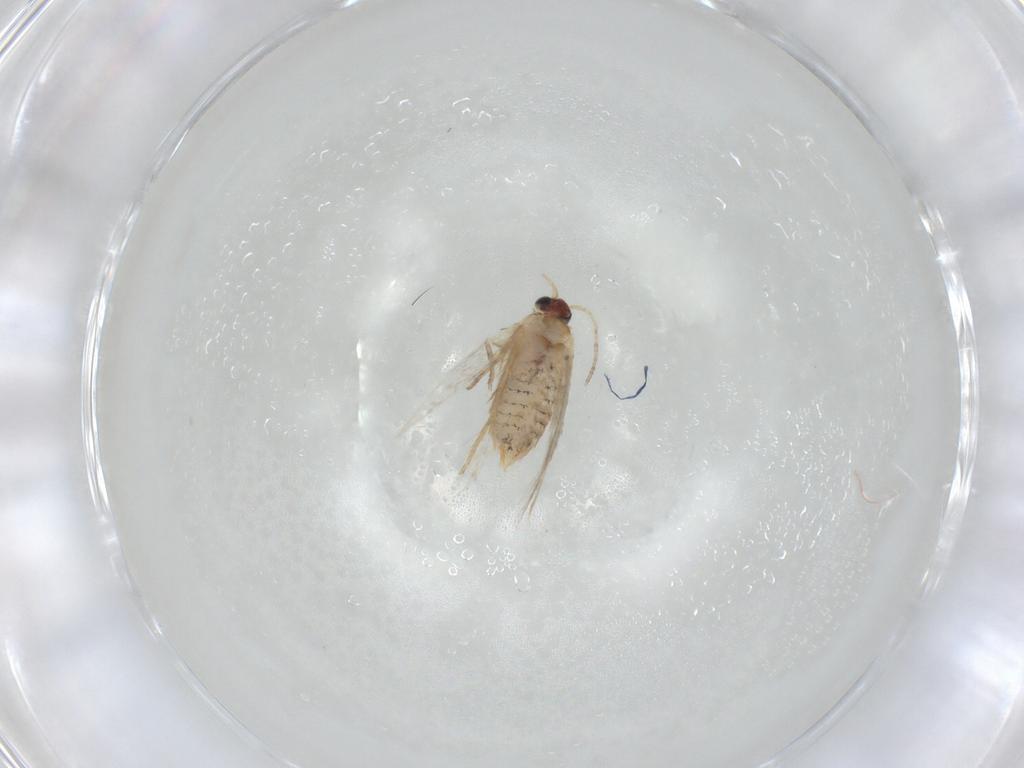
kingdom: Animalia
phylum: Arthropoda
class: Insecta
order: Lepidoptera
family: Nepticulidae
